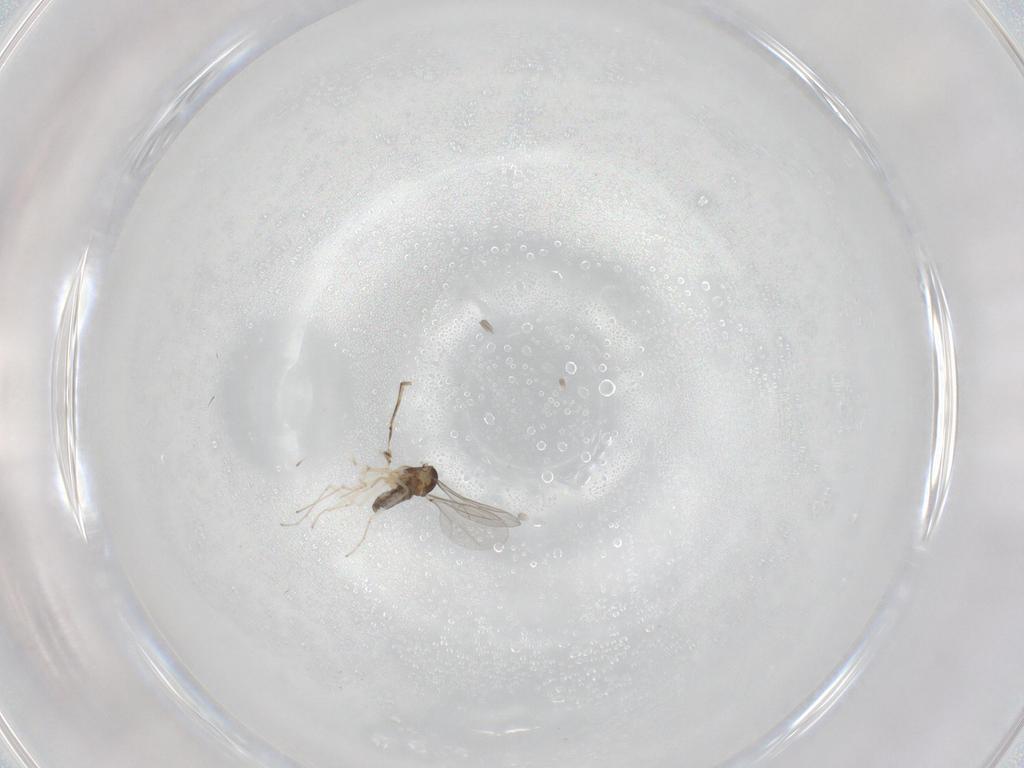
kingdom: Animalia
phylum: Arthropoda
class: Insecta
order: Diptera
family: Cecidomyiidae
